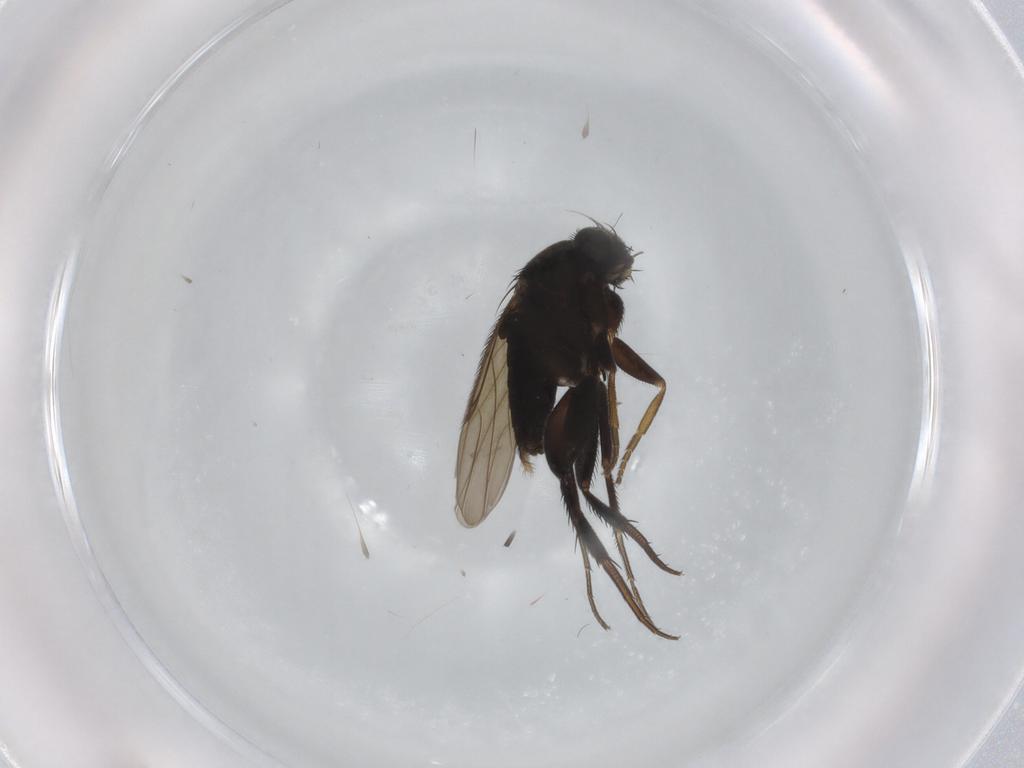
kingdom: Animalia
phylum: Arthropoda
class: Insecta
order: Diptera
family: Phoridae
